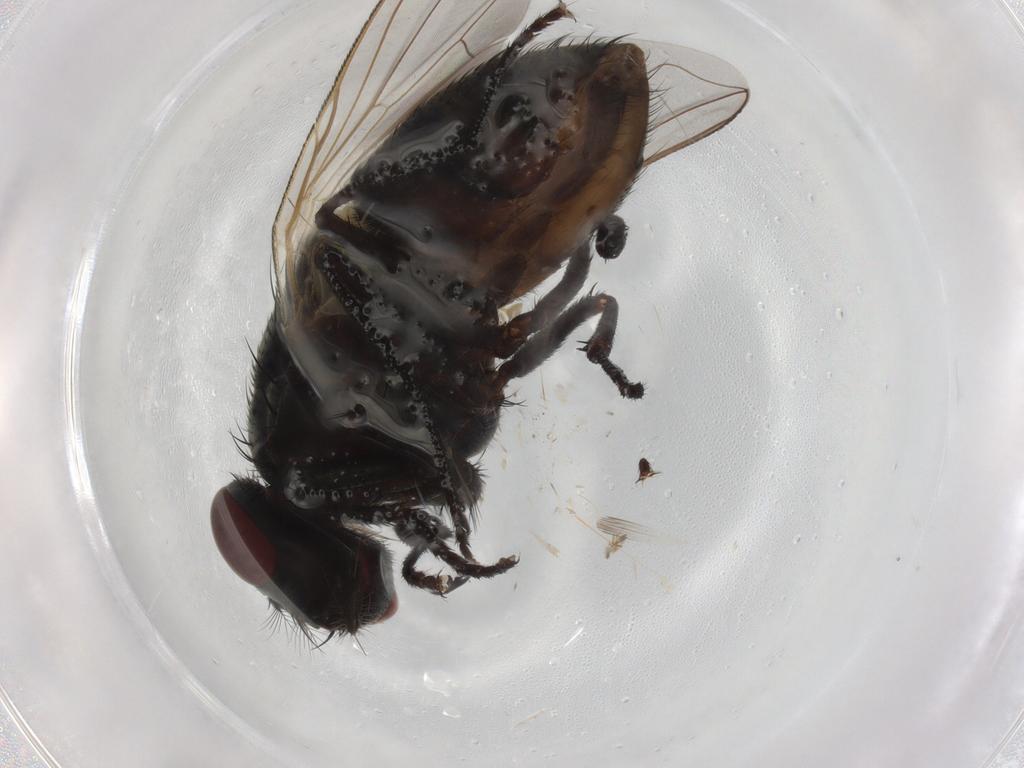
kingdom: Animalia
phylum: Arthropoda
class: Insecta
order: Diptera
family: Muscidae
